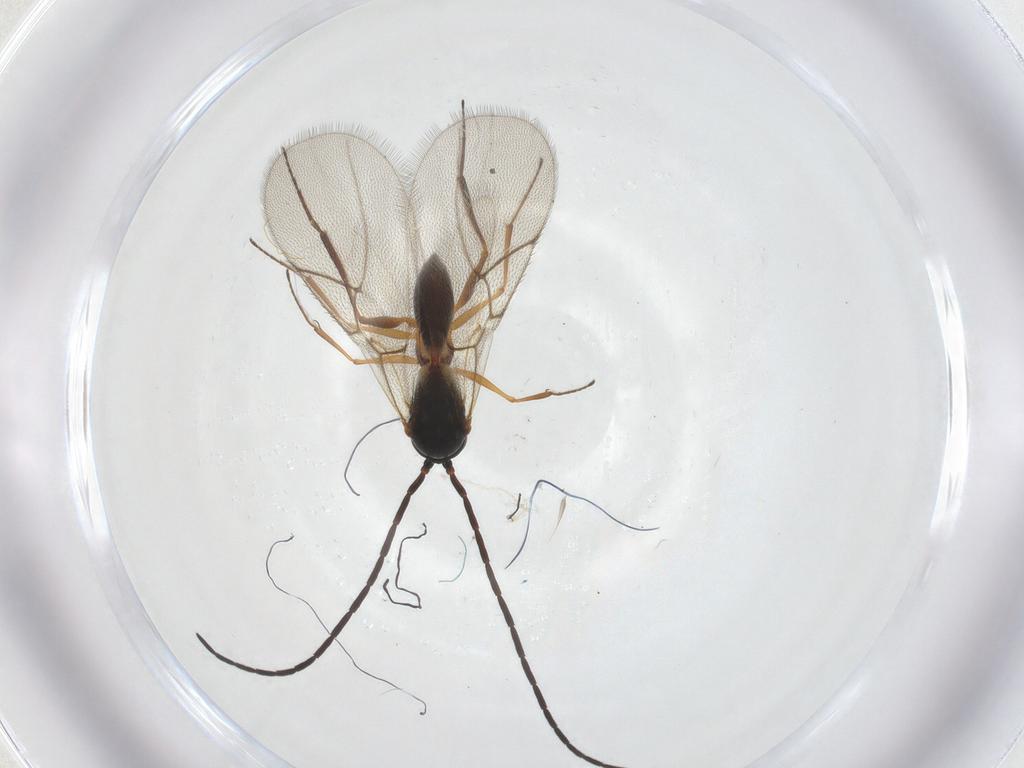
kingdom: Animalia
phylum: Arthropoda
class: Insecta
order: Hymenoptera
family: Figitidae
